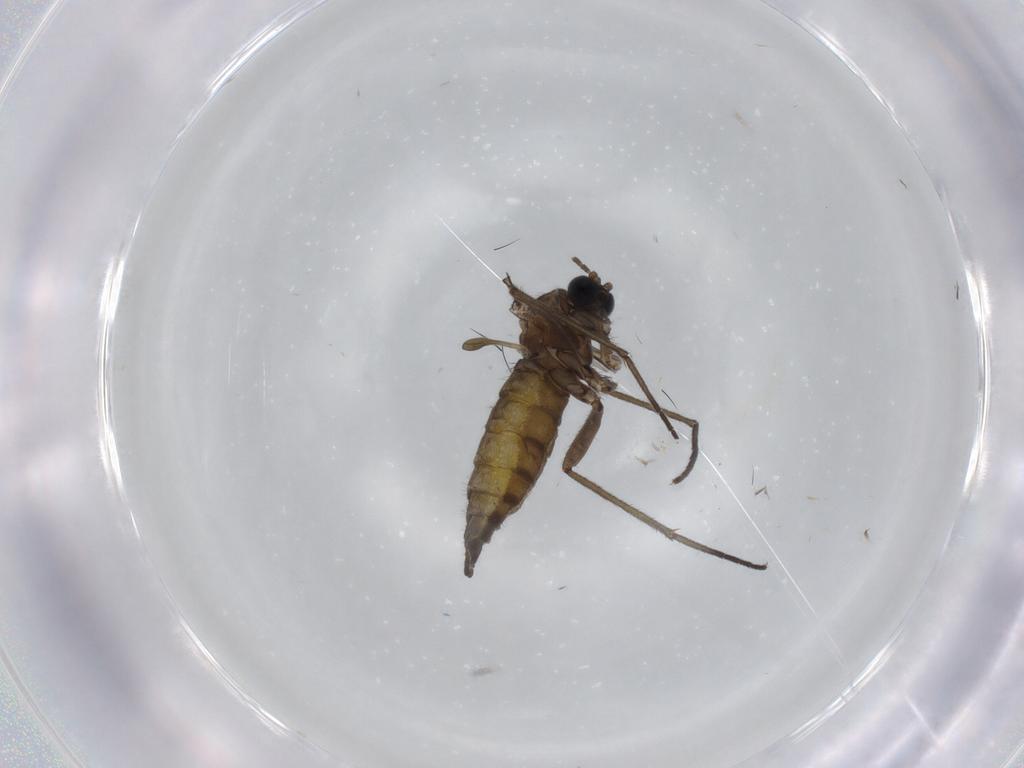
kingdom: Animalia
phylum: Arthropoda
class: Insecta
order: Diptera
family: Sciaridae
